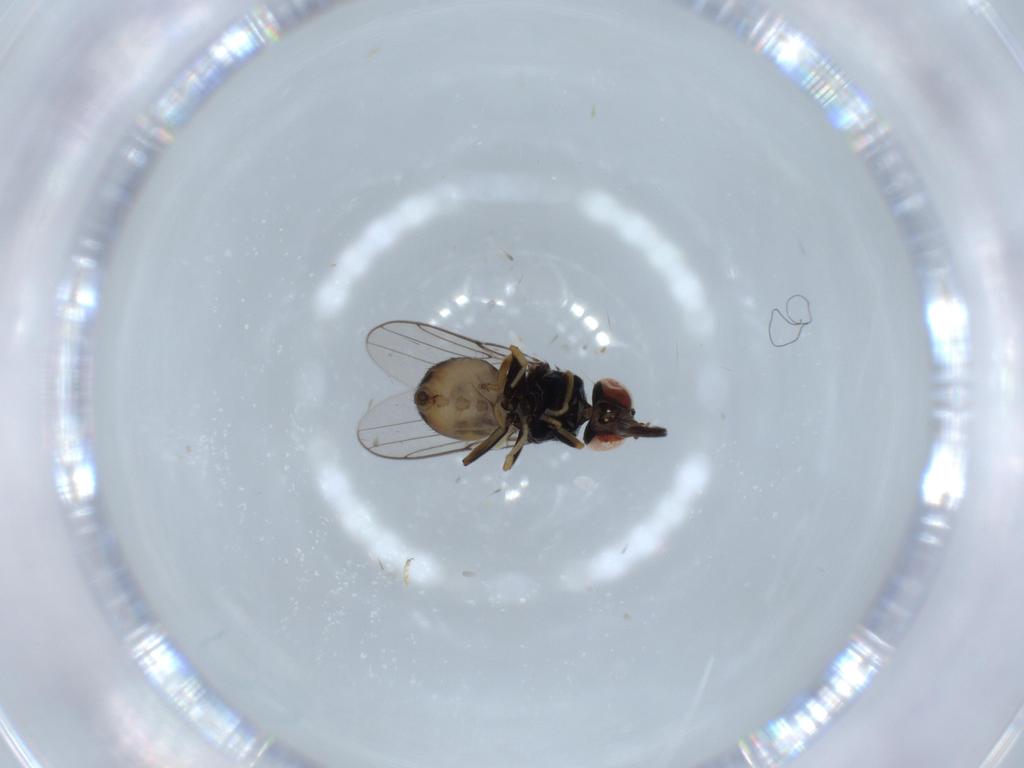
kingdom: Animalia
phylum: Arthropoda
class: Insecta
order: Diptera
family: Chloropidae
